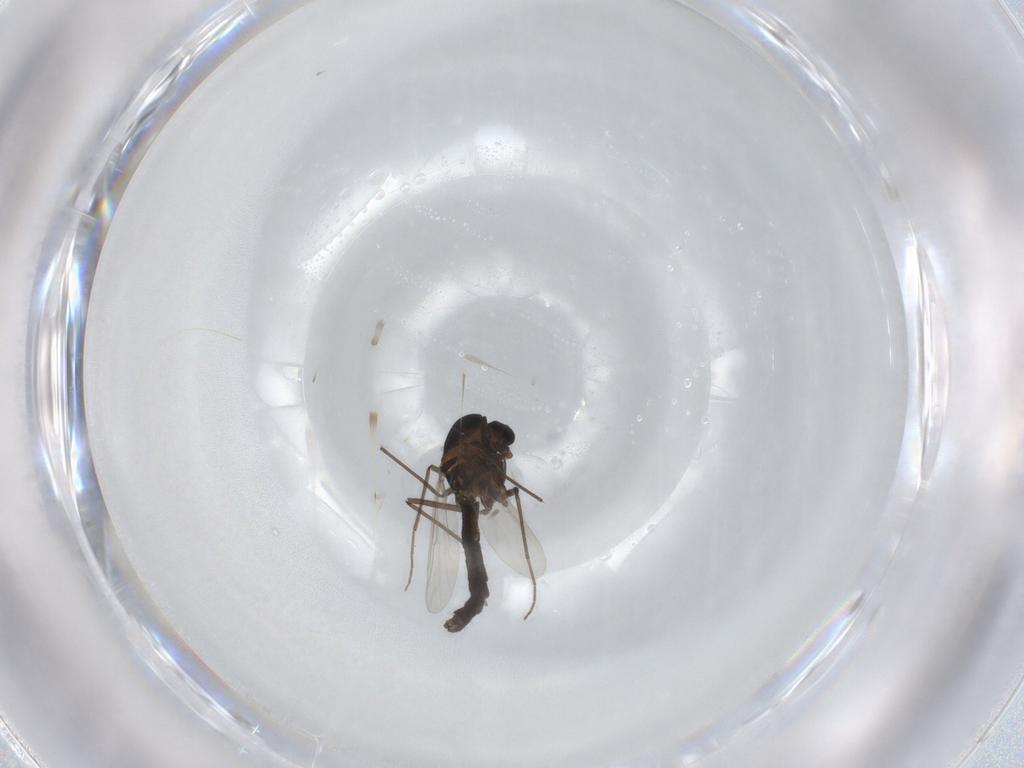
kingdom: Animalia
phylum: Arthropoda
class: Insecta
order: Diptera
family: Chironomidae
